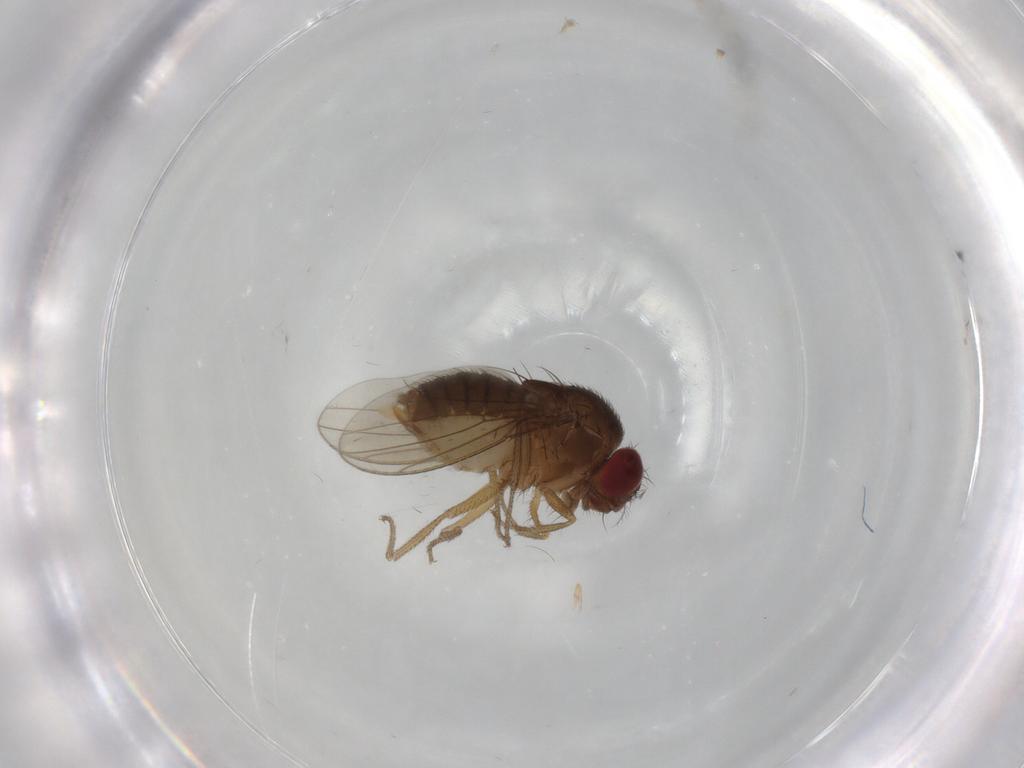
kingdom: Animalia
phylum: Arthropoda
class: Insecta
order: Diptera
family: Drosophilidae
